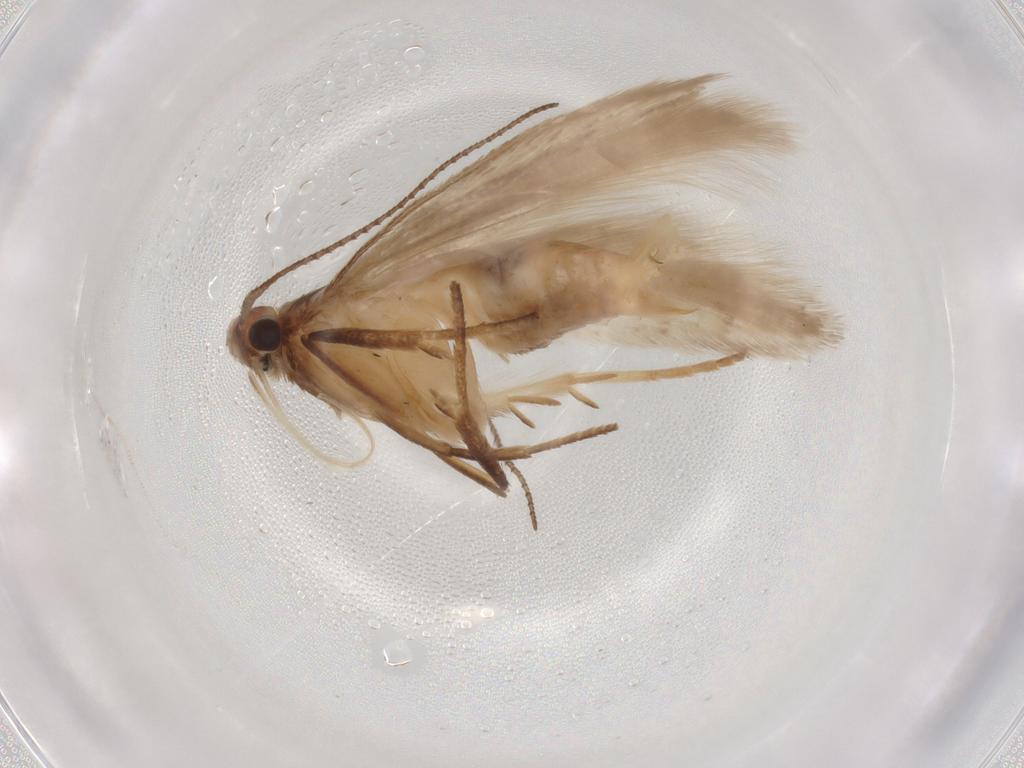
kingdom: Animalia
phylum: Arthropoda
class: Insecta
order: Lepidoptera
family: Gelechiidae
